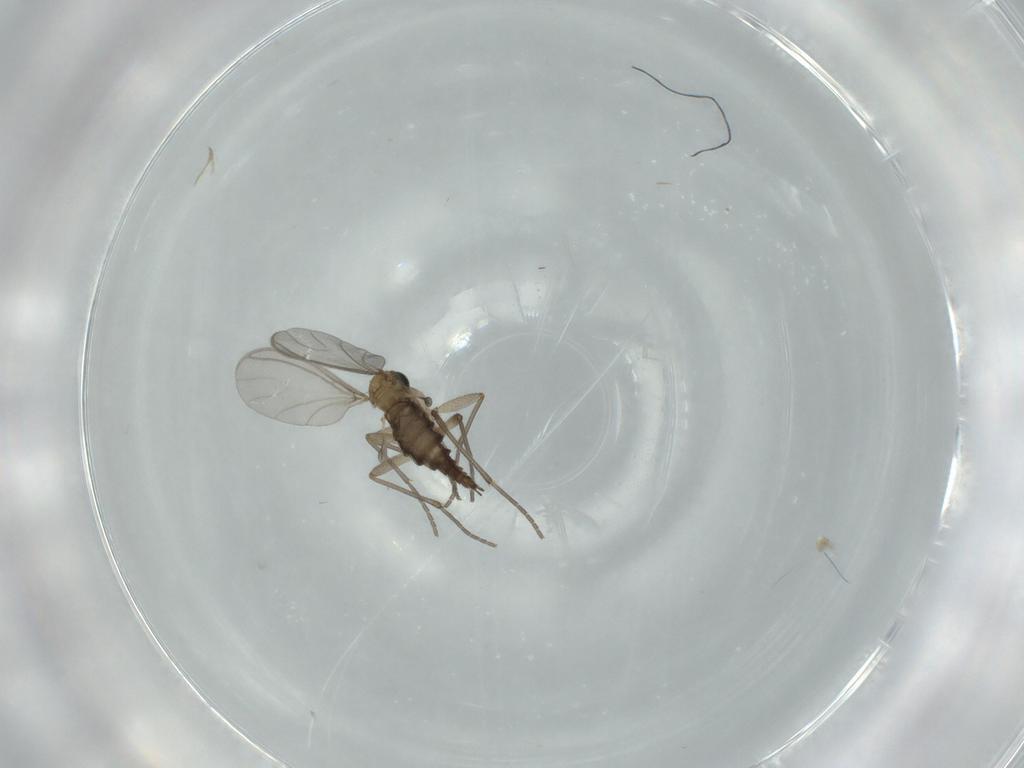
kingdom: Animalia
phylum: Arthropoda
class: Insecta
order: Diptera
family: Sciaridae
